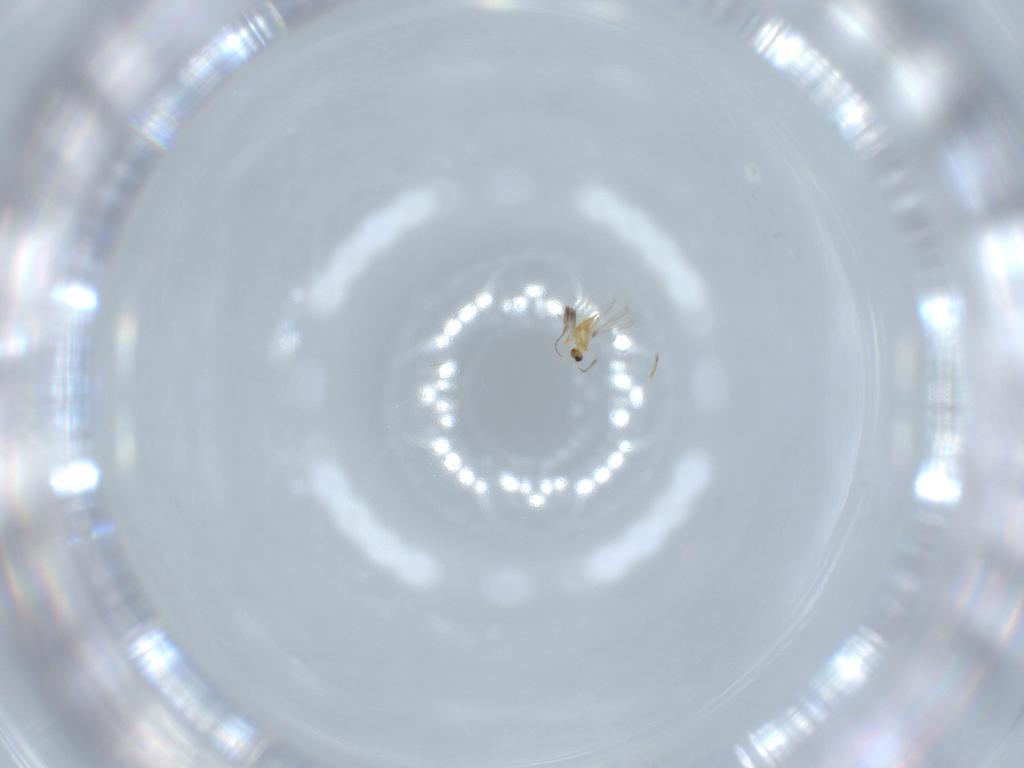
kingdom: Animalia
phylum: Arthropoda
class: Insecta
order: Hymenoptera
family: Mymaridae
